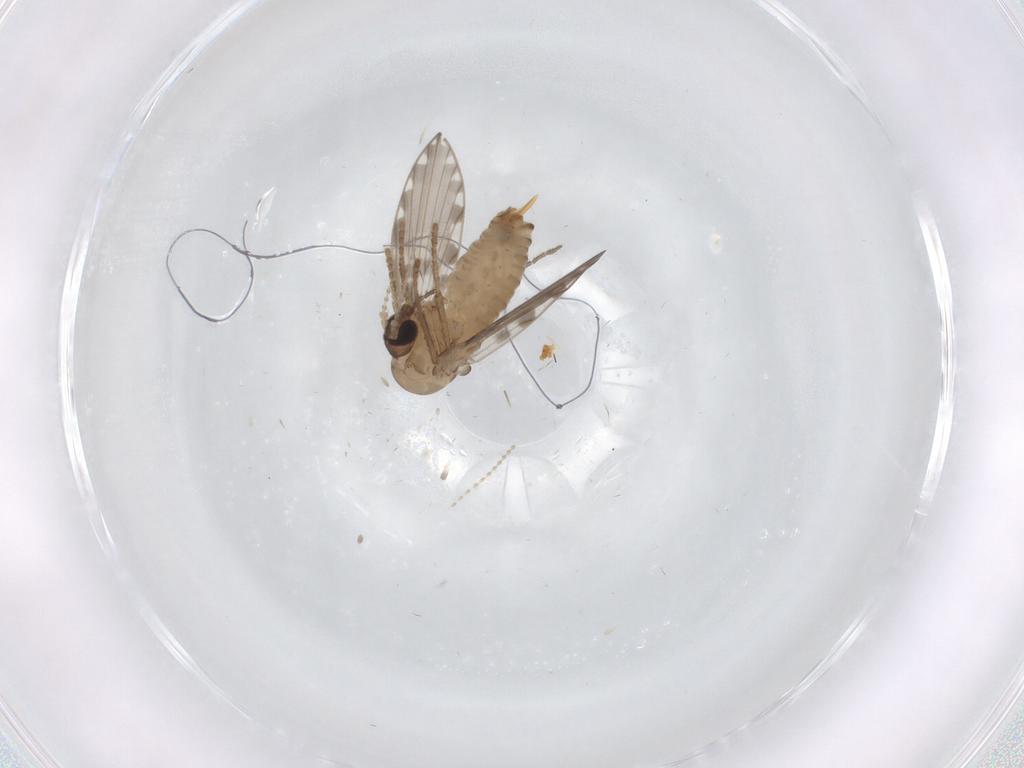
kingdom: Animalia
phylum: Arthropoda
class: Insecta
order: Diptera
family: Psychodidae
